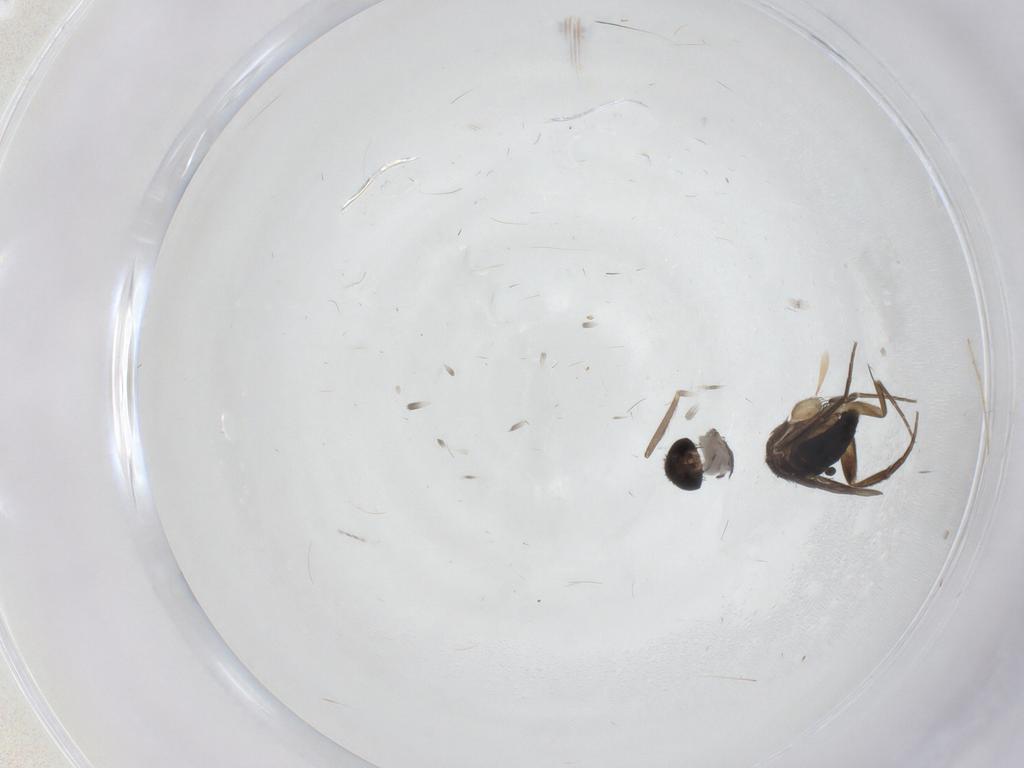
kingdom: Animalia
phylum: Arthropoda
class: Insecta
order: Diptera
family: Phoridae
